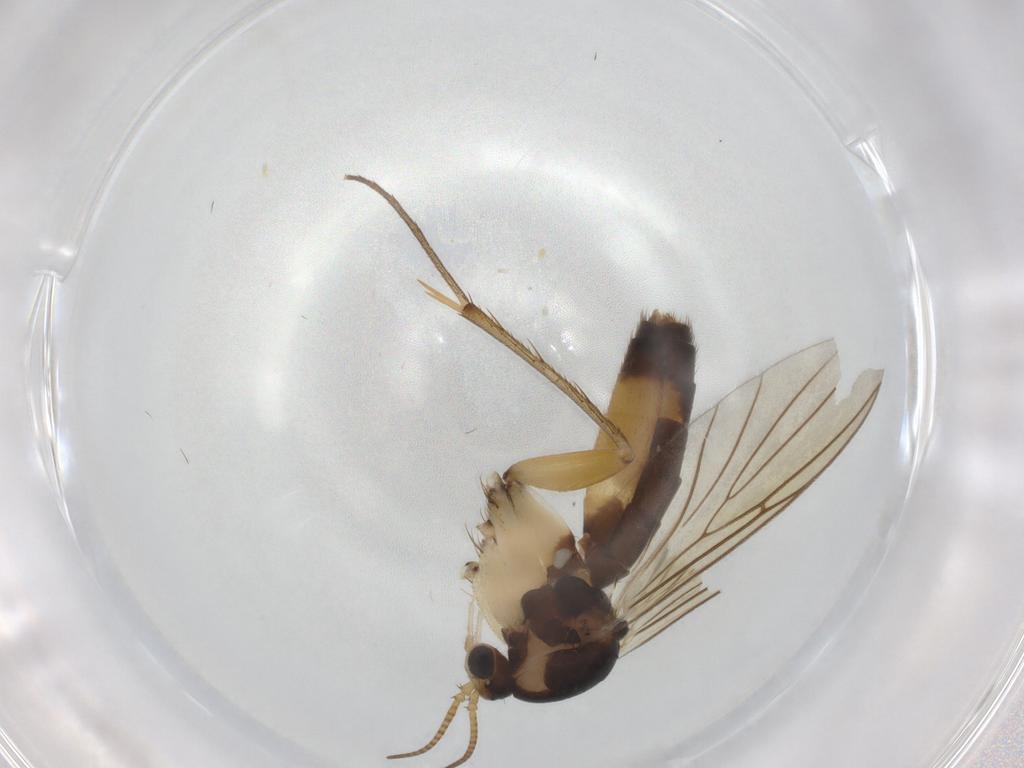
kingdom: Animalia
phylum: Arthropoda
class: Insecta
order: Diptera
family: Mycetophilidae
